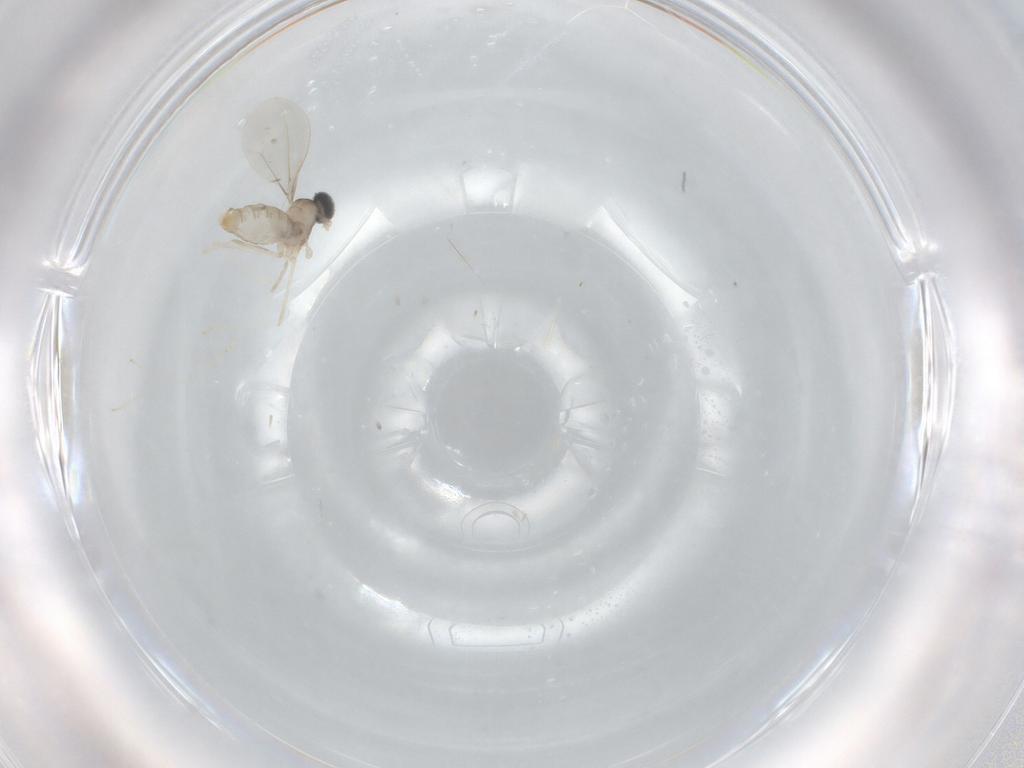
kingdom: Animalia
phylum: Arthropoda
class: Insecta
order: Diptera
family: Cecidomyiidae
